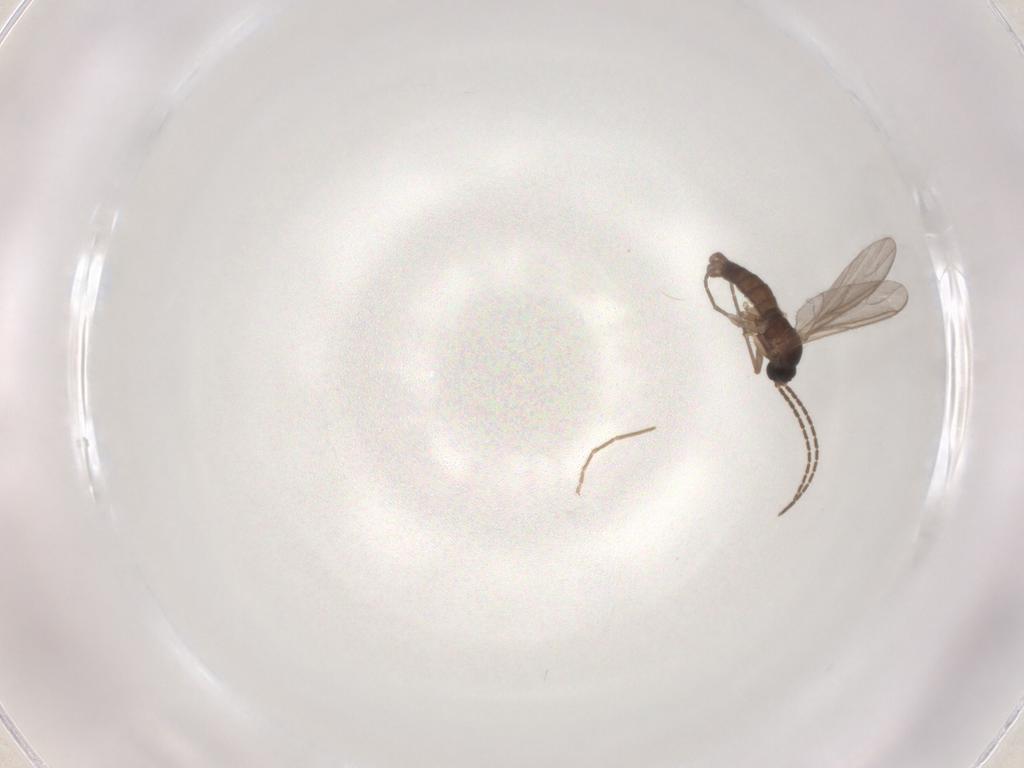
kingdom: Animalia
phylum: Arthropoda
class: Insecta
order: Diptera
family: Sciaridae
